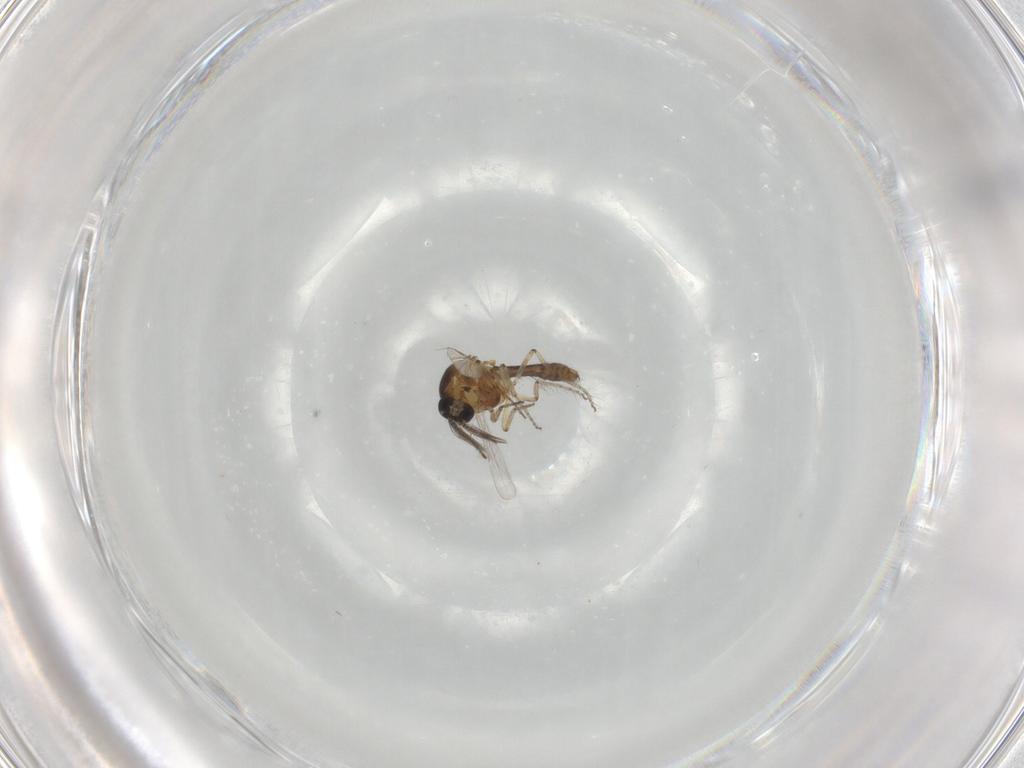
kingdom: Animalia
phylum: Arthropoda
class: Insecta
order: Diptera
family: Ceratopogonidae
